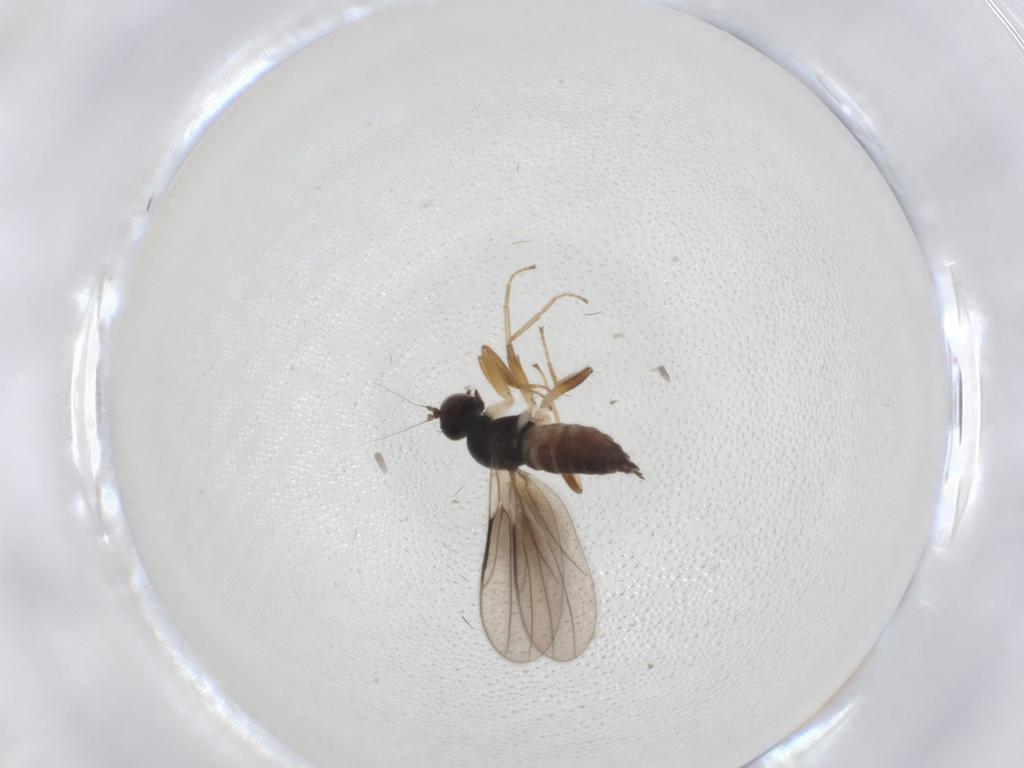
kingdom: Animalia
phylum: Arthropoda
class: Insecta
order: Diptera
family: Hybotidae
